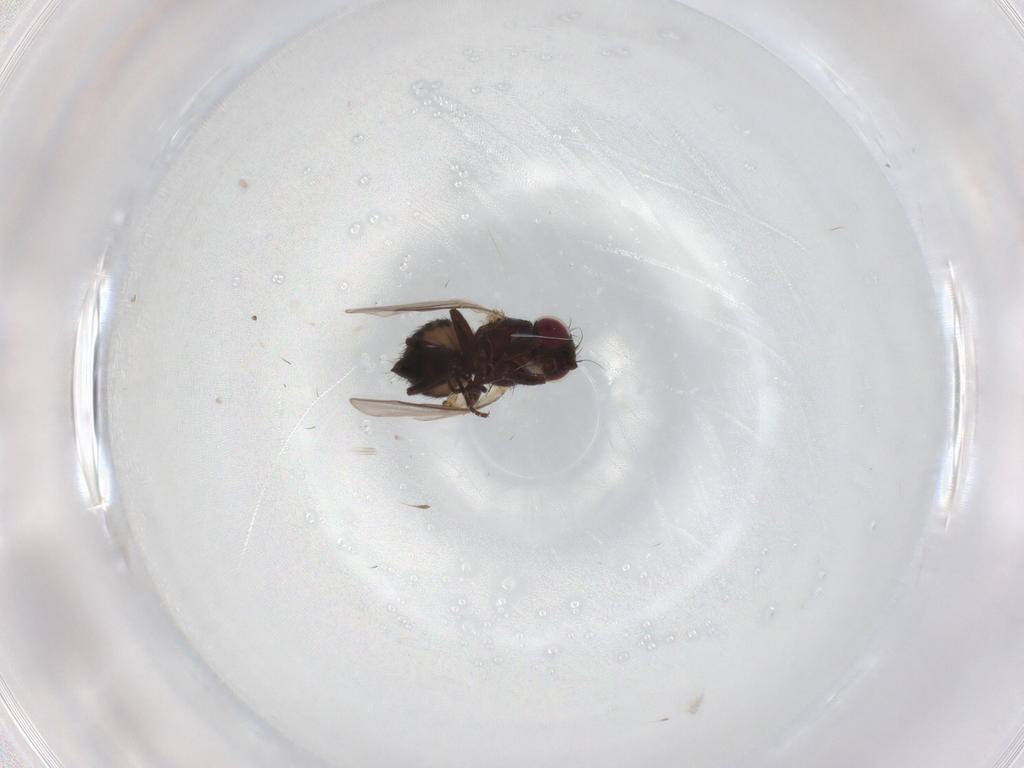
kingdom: Animalia
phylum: Arthropoda
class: Insecta
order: Diptera
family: Agromyzidae
